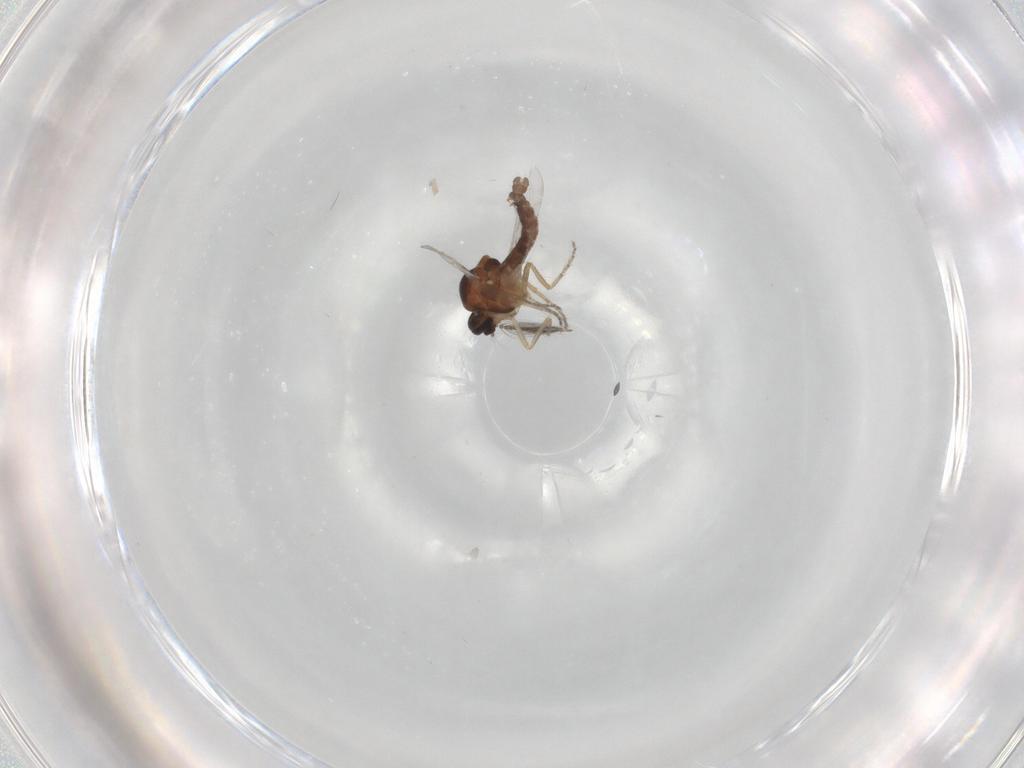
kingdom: Animalia
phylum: Arthropoda
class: Insecta
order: Diptera
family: Ceratopogonidae
